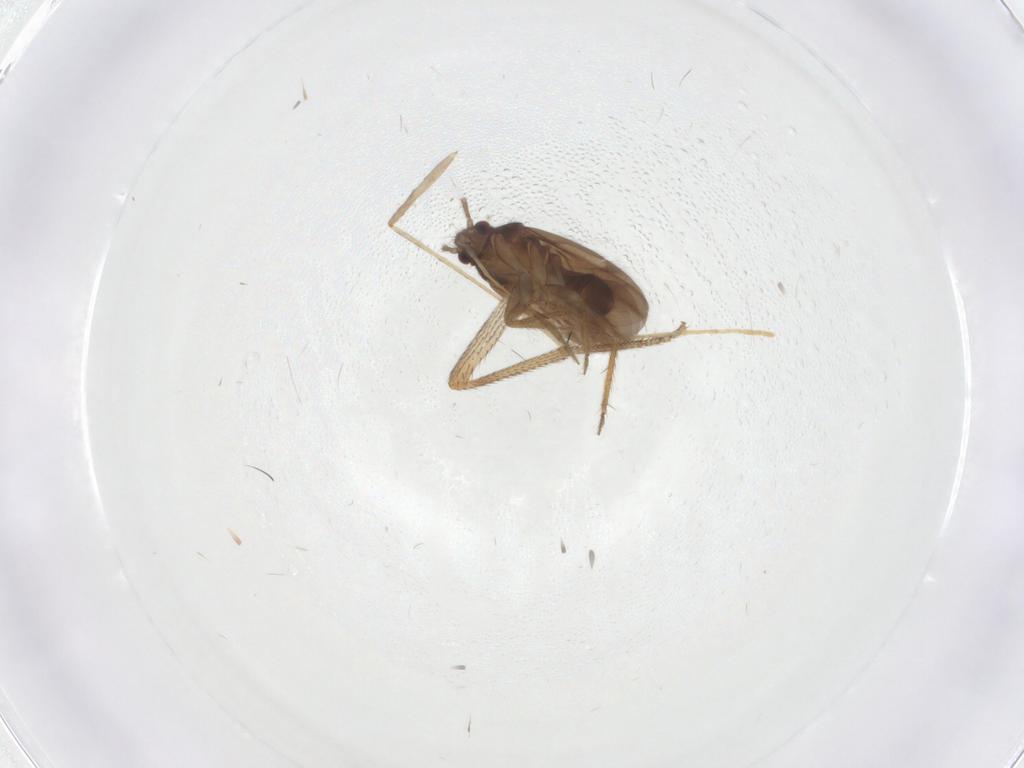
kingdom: Animalia
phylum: Arthropoda
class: Insecta
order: Hemiptera
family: Ceratocombidae
